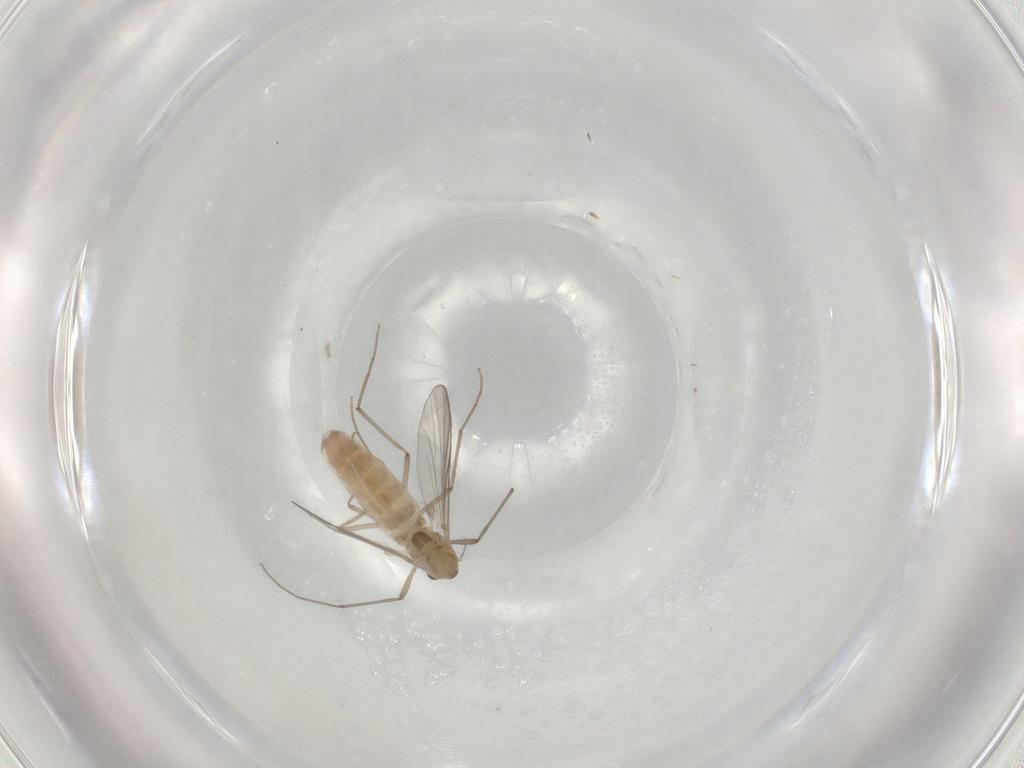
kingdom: Animalia
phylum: Arthropoda
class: Insecta
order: Diptera
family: Chironomidae
